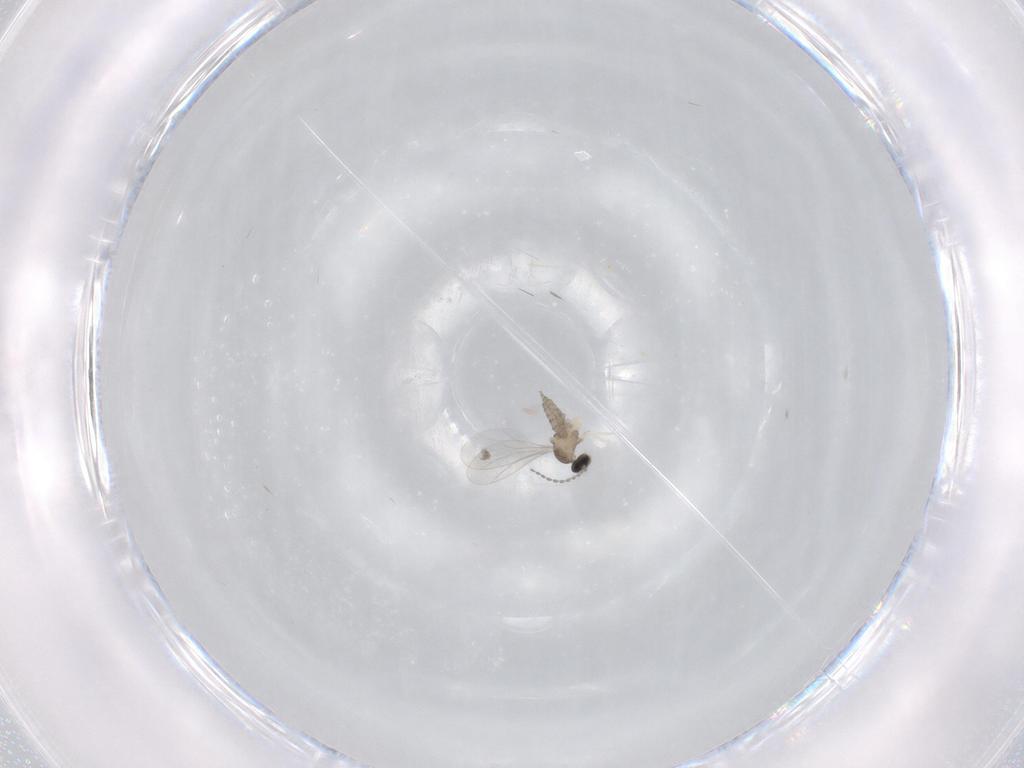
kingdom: Animalia
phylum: Arthropoda
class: Insecta
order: Diptera
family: Cecidomyiidae
